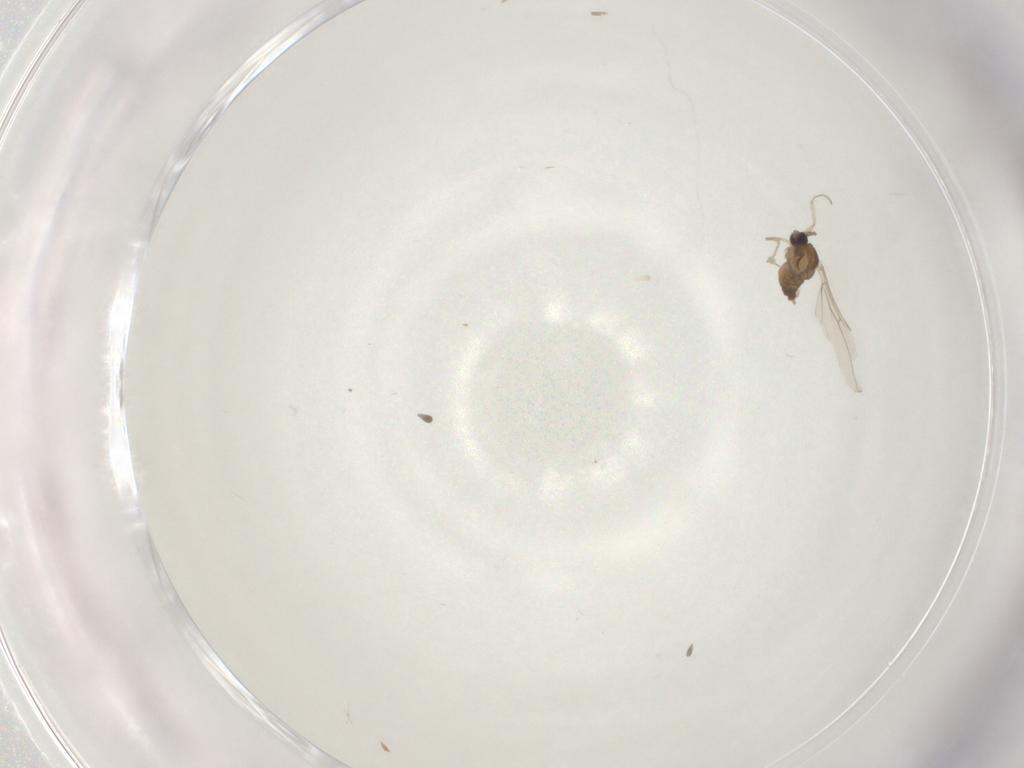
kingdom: Animalia
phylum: Arthropoda
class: Insecta
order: Diptera
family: Cecidomyiidae
